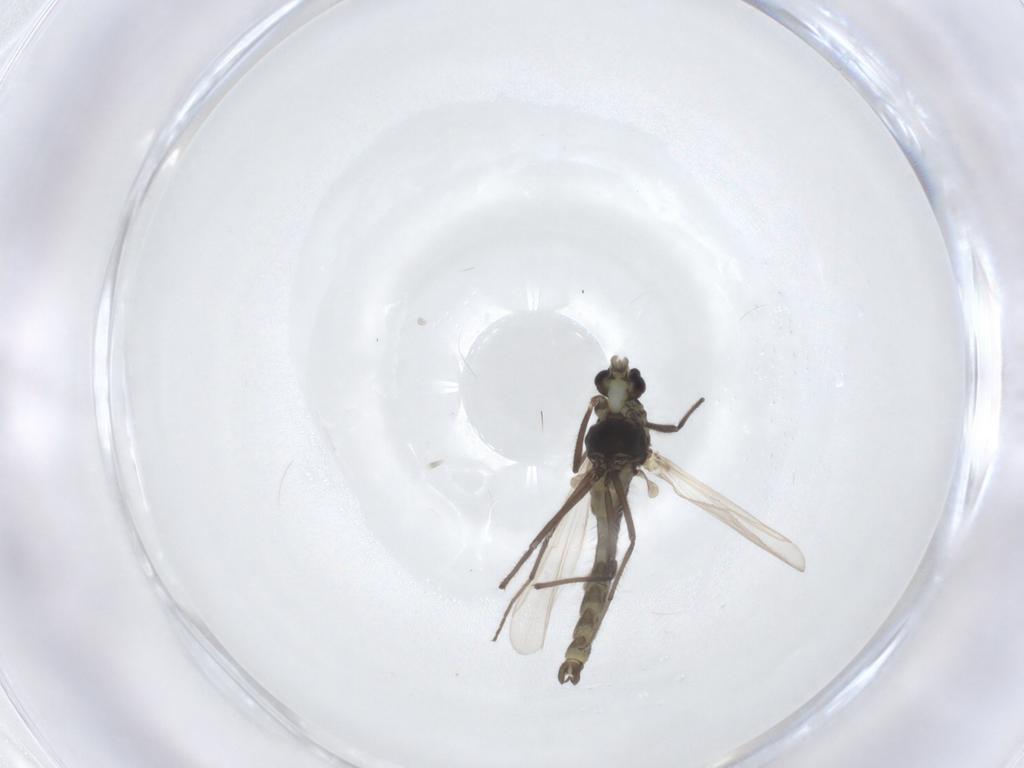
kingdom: Animalia
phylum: Arthropoda
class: Insecta
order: Diptera
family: Chironomidae
